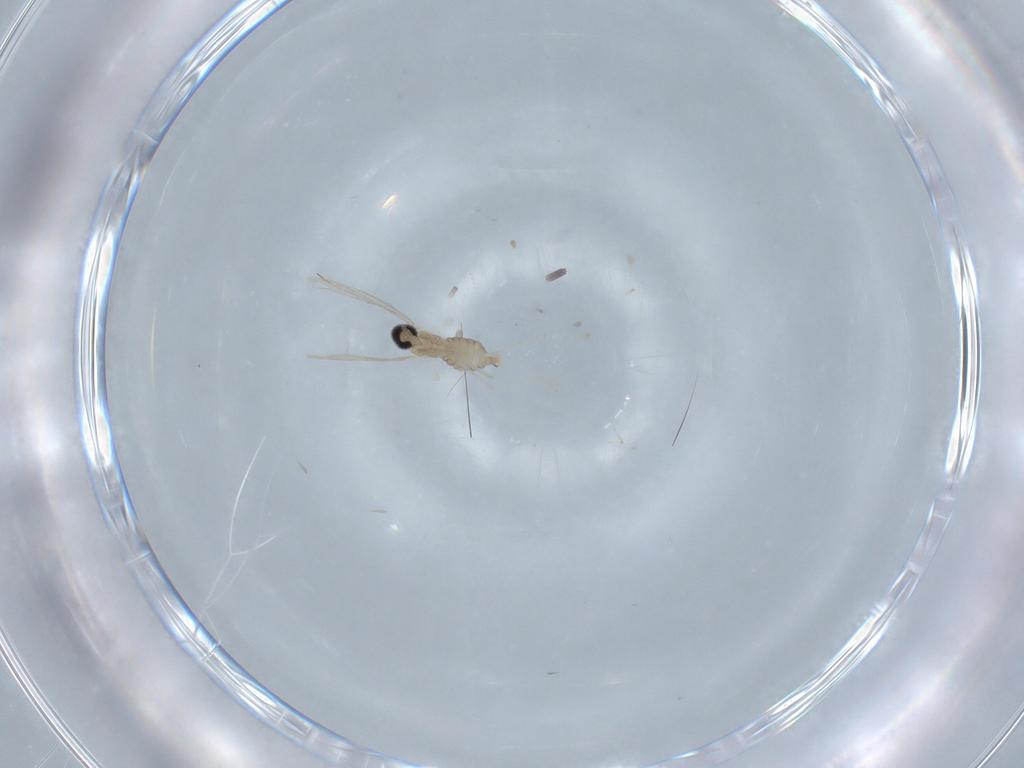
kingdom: Animalia
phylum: Arthropoda
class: Insecta
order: Diptera
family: Cecidomyiidae
